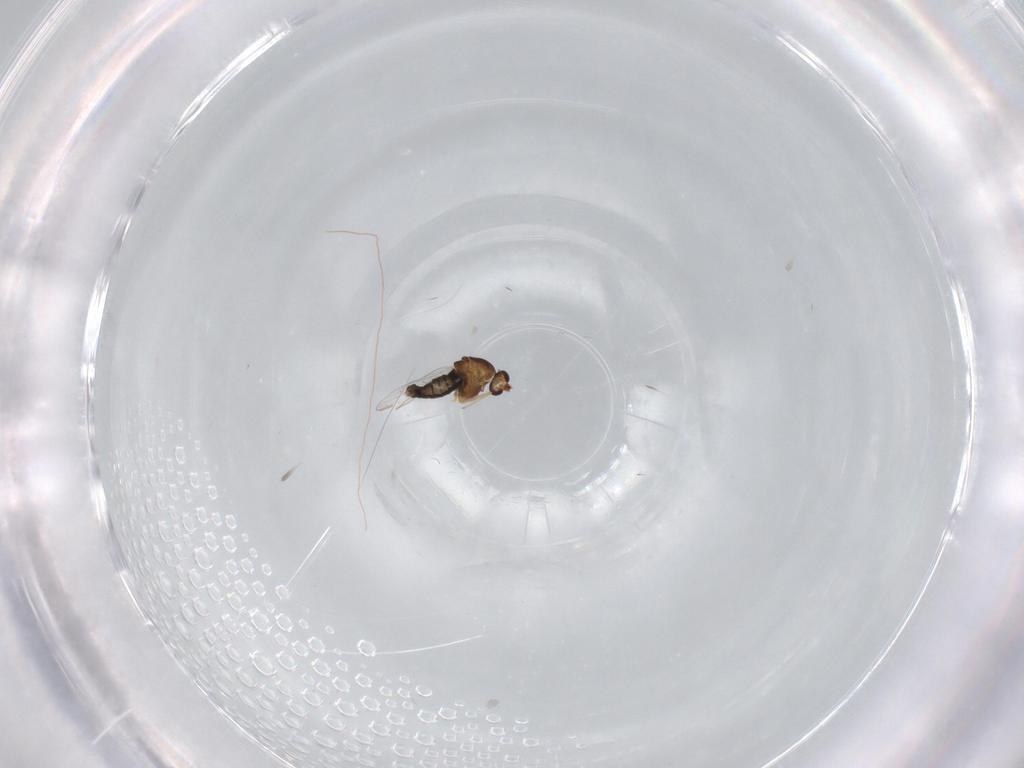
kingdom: Animalia
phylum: Arthropoda
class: Insecta
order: Diptera
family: Chironomidae
